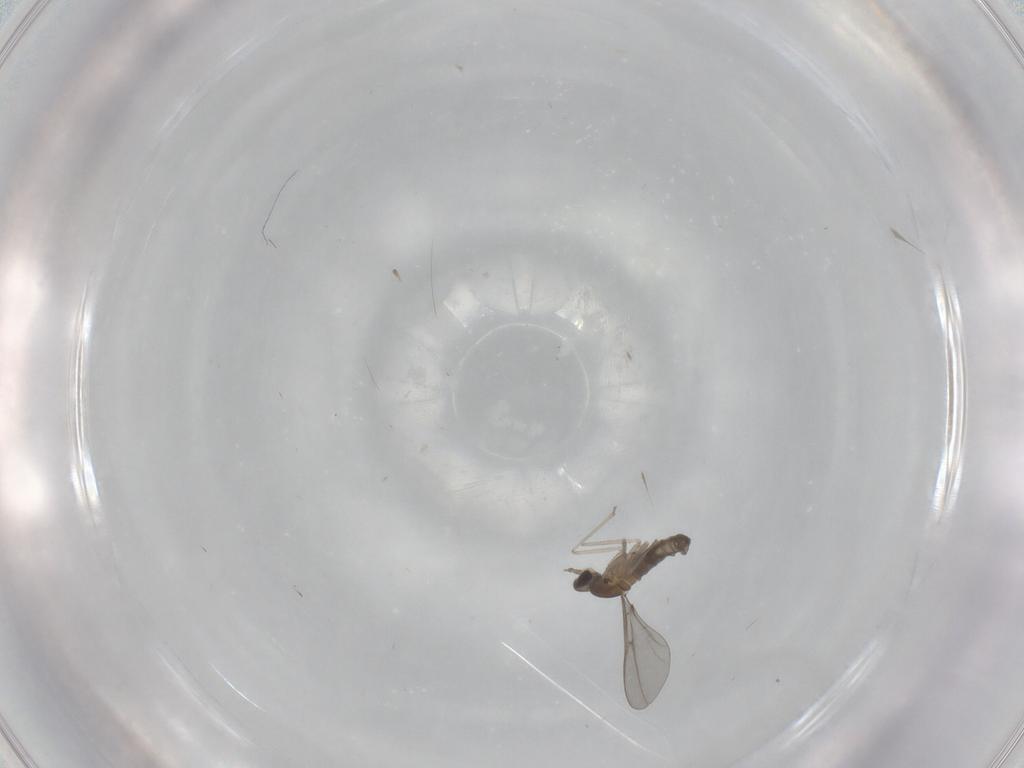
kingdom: Animalia
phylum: Arthropoda
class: Insecta
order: Diptera
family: Cecidomyiidae
